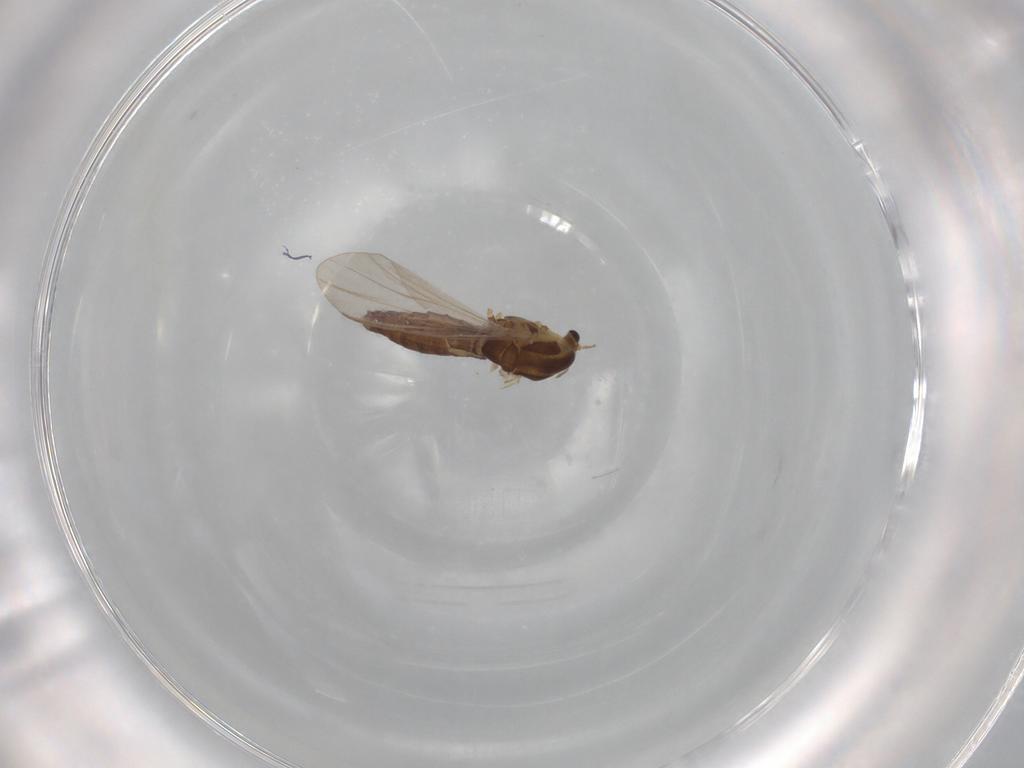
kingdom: Animalia
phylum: Arthropoda
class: Insecta
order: Diptera
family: Chironomidae
